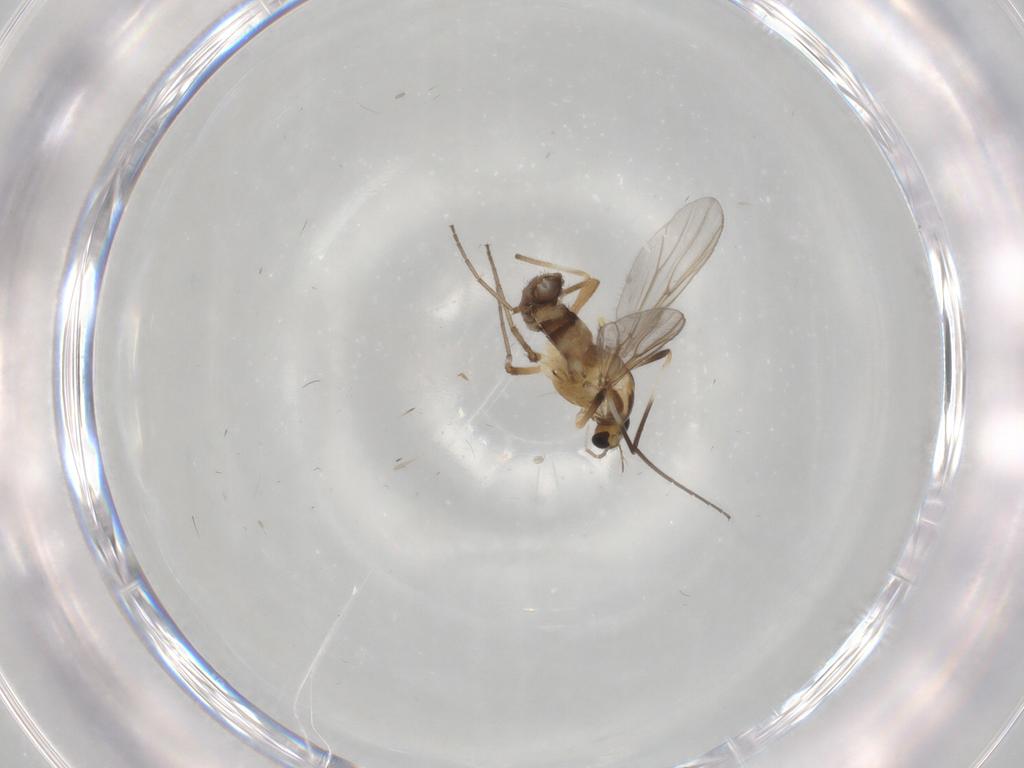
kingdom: Animalia
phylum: Arthropoda
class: Insecta
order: Diptera
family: Chironomidae
